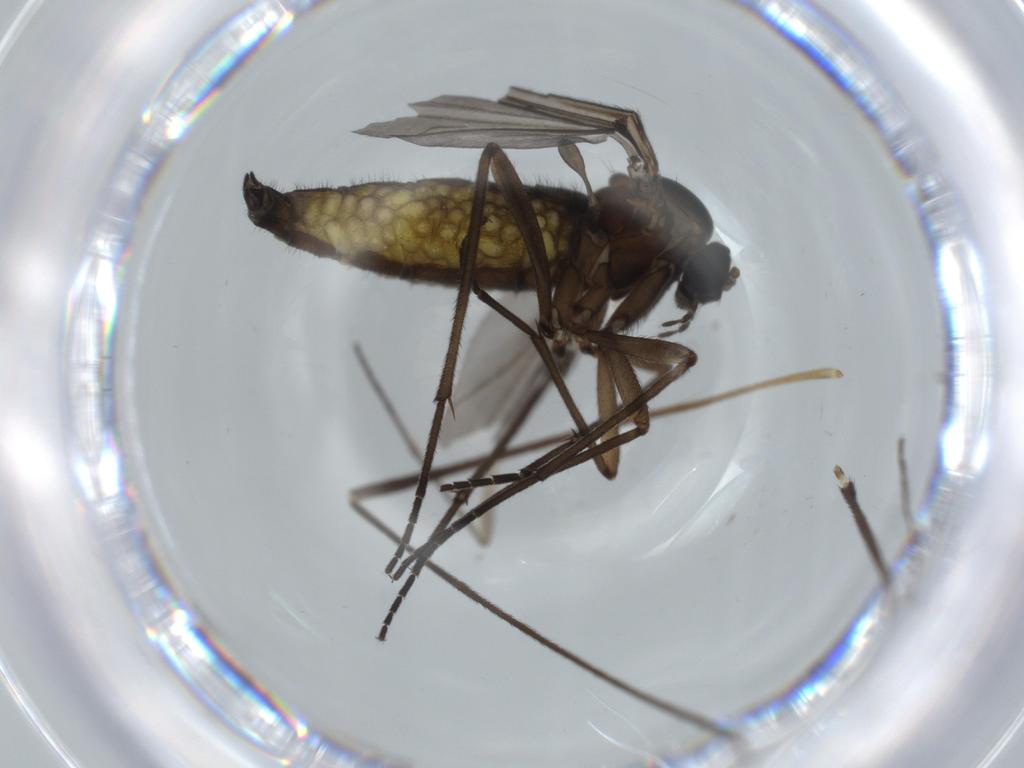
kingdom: Animalia
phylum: Arthropoda
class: Insecta
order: Diptera
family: Sciaridae
